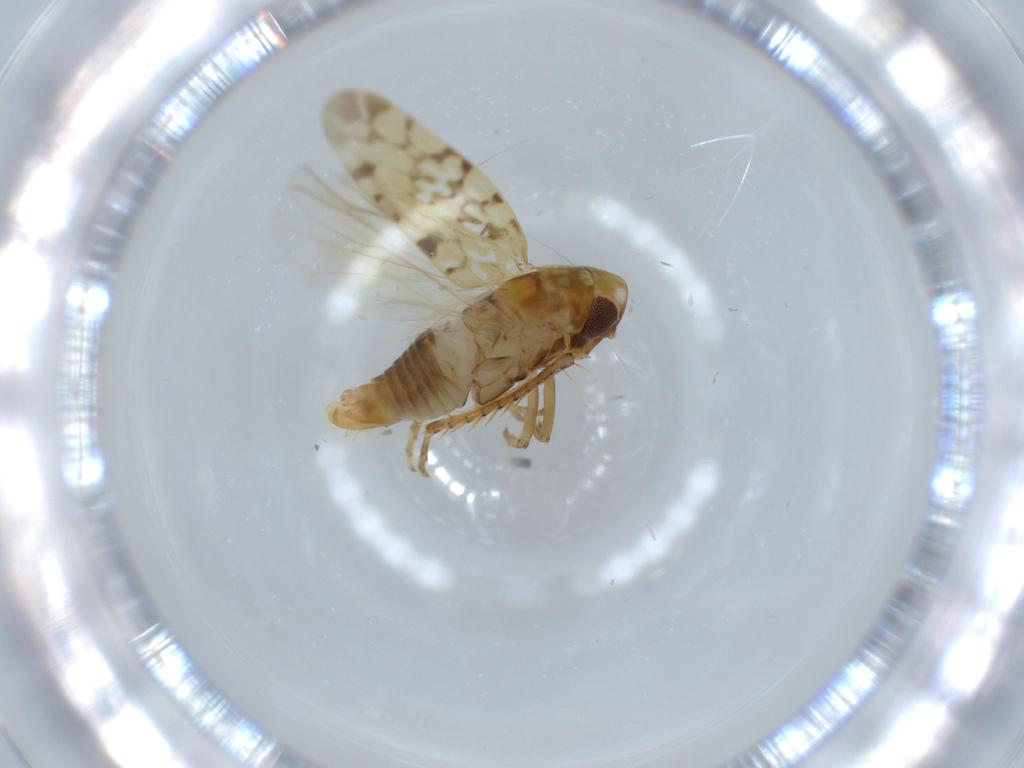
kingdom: Animalia
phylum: Arthropoda
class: Insecta
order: Hemiptera
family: Cicadellidae
